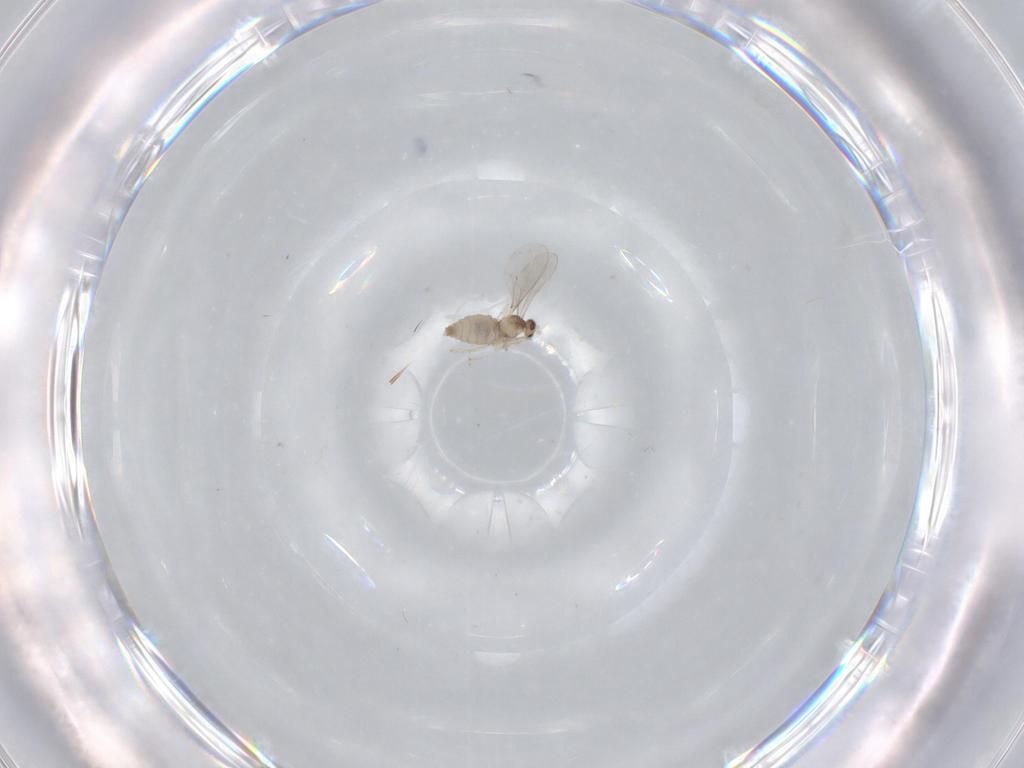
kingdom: Animalia
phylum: Arthropoda
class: Insecta
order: Diptera
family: Cecidomyiidae
